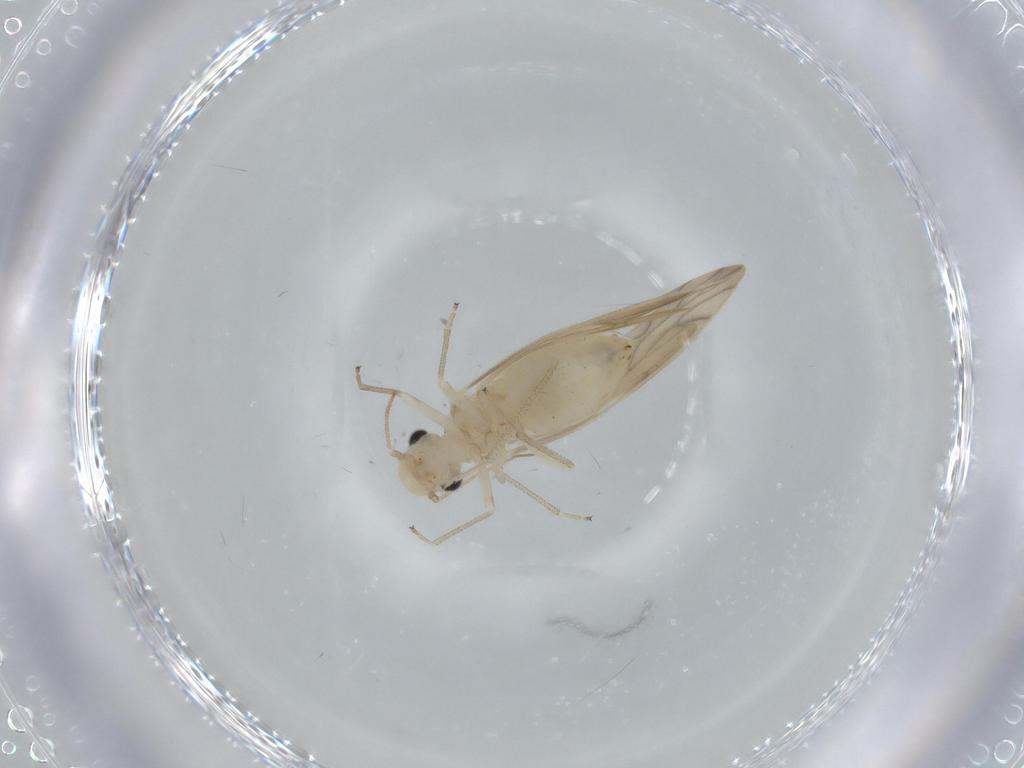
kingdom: Animalia
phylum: Arthropoda
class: Insecta
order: Psocodea
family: Caeciliusidae
